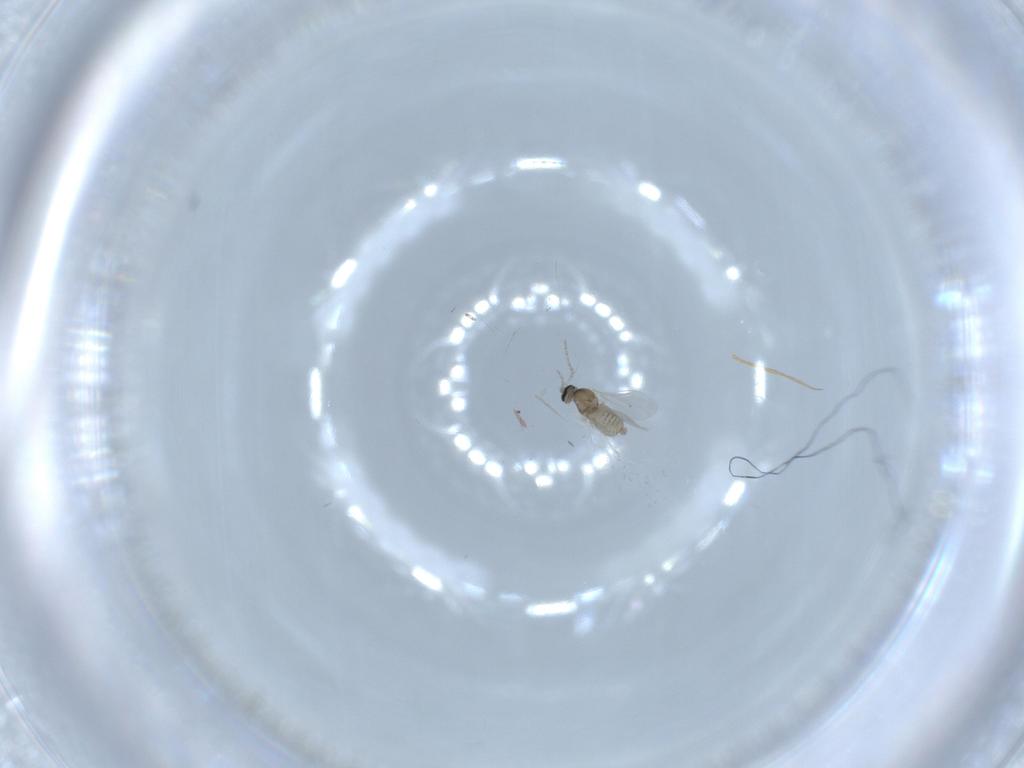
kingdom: Animalia
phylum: Arthropoda
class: Insecta
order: Diptera
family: Cecidomyiidae
